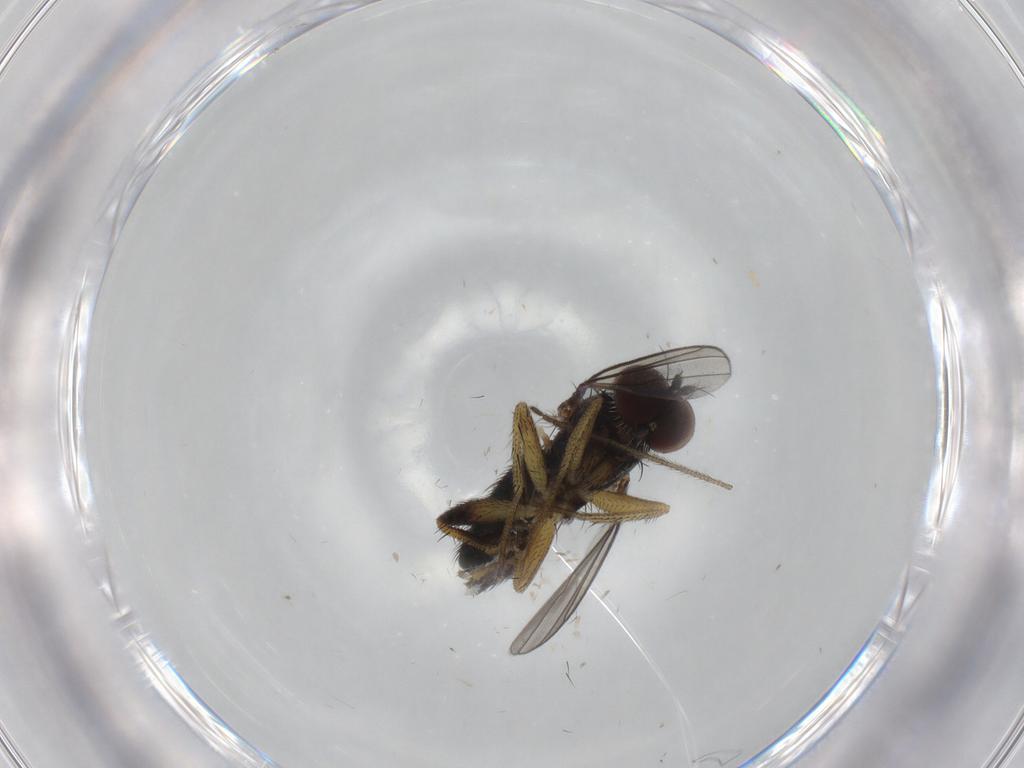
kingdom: Animalia
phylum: Arthropoda
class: Insecta
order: Diptera
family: Dolichopodidae
